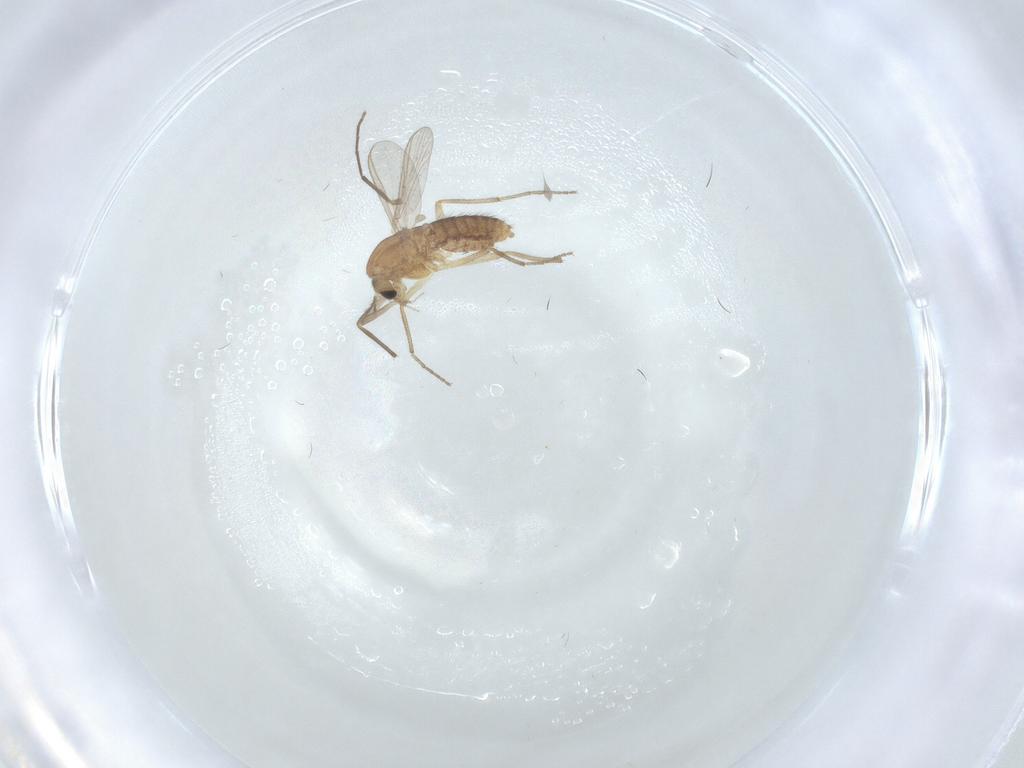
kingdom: Animalia
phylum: Arthropoda
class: Insecta
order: Diptera
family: Chironomidae
